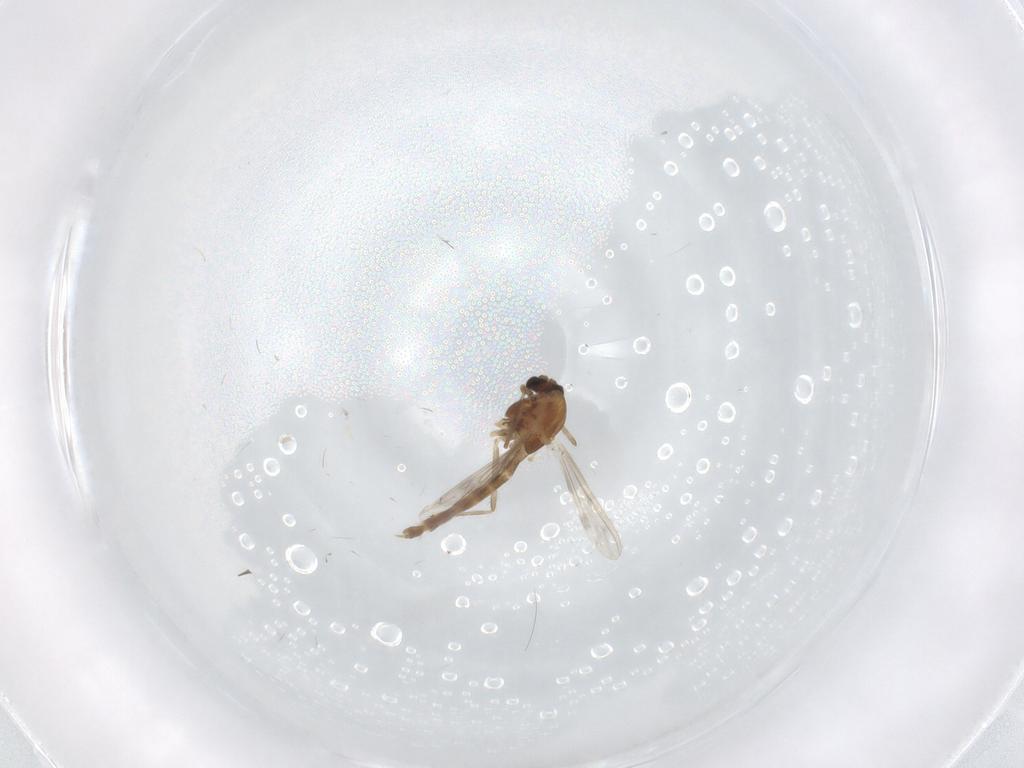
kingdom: Animalia
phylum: Arthropoda
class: Insecta
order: Diptera
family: Chironomidae
